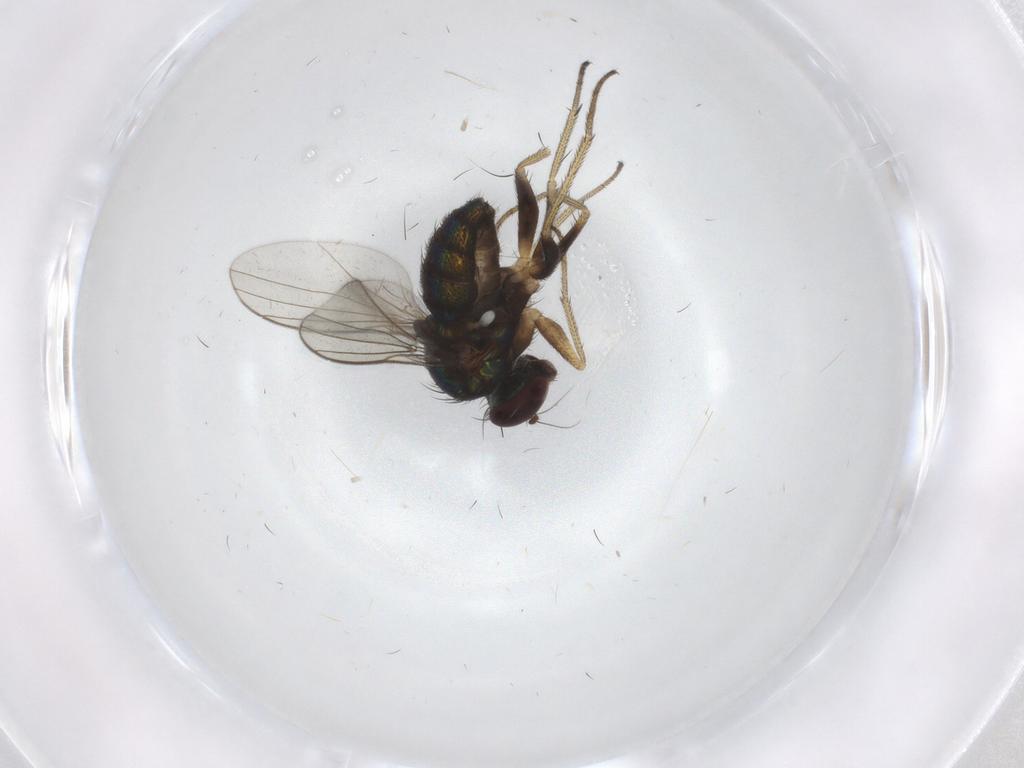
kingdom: Animalia
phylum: Arthropoda
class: Insecta
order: Diptera
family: Dolichopodidae
